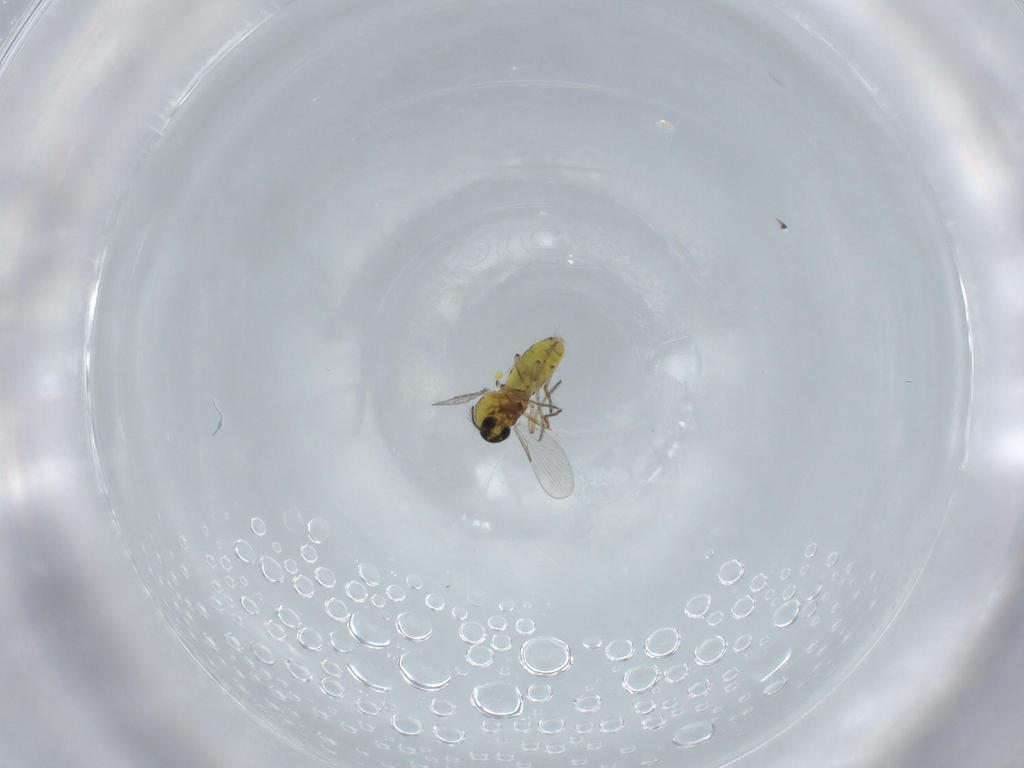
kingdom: Animalia
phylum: Arthropoda
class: Insecta
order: Diptera
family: Ceratopogonidae
